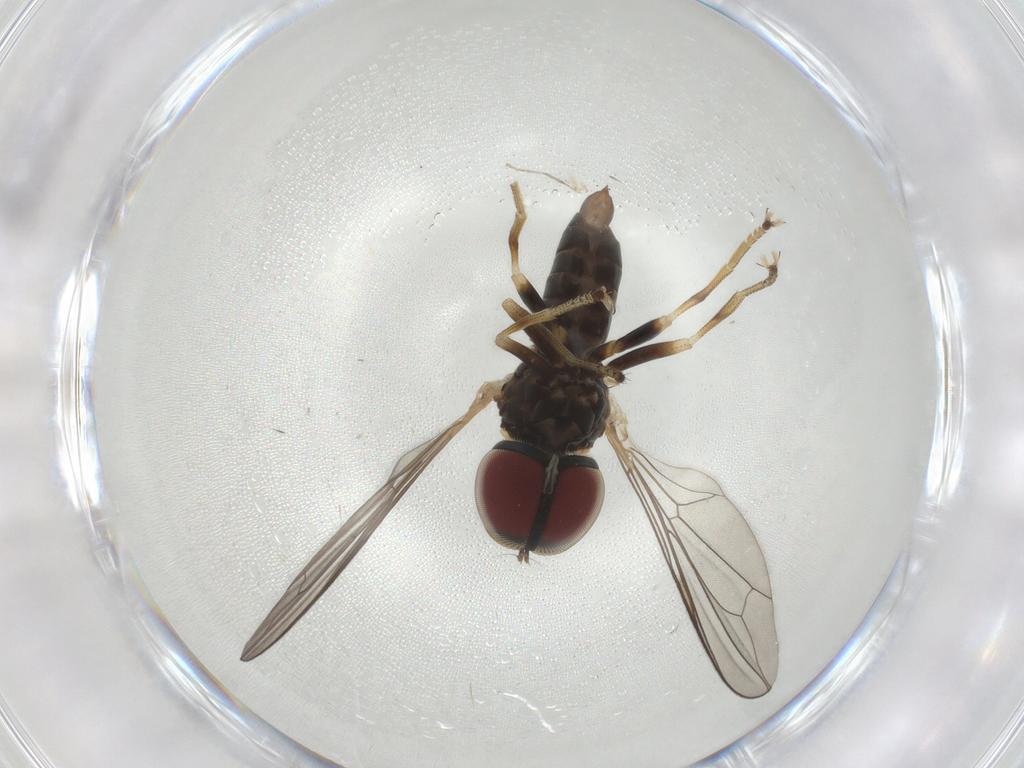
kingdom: Animalia
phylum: Arthropoda
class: Insecta
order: Diptera
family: Pipunculidae
